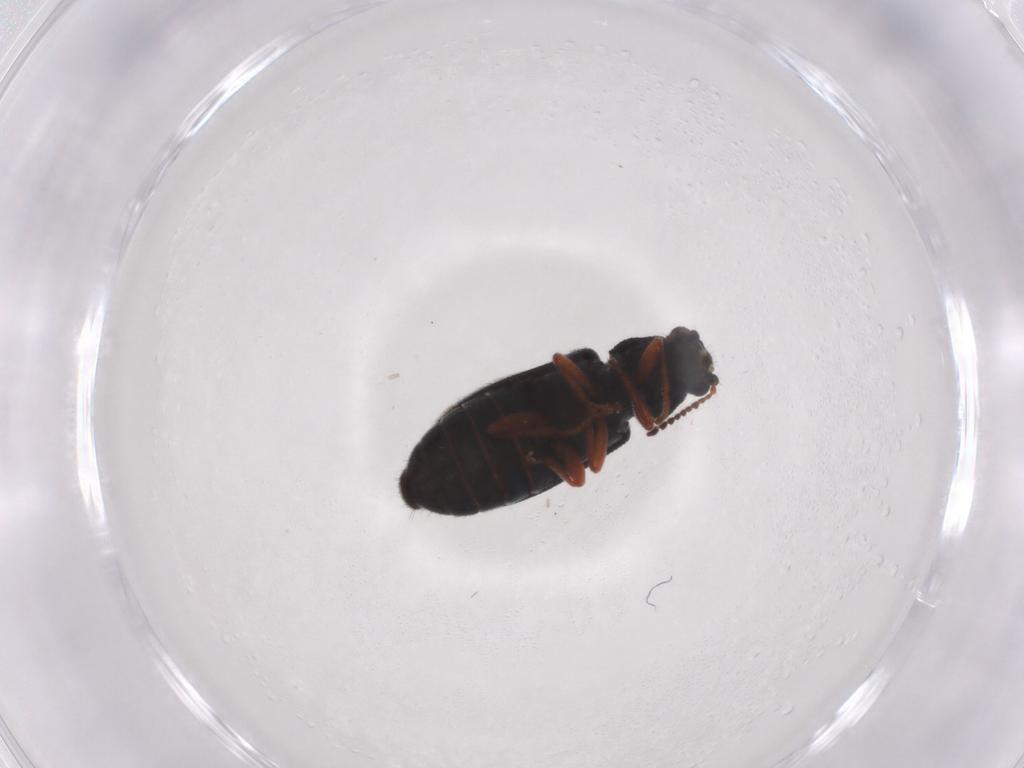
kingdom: Animalia
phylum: Arthropoda
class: Insecta
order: Coleoptera
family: Melyridae
